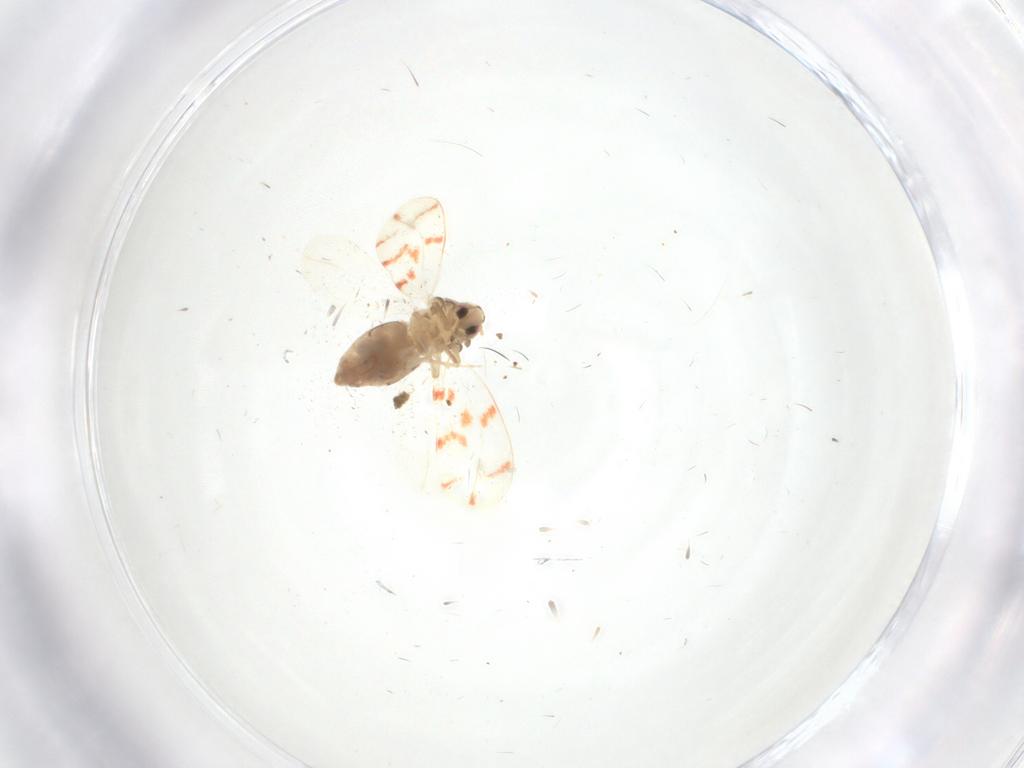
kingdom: Animalia
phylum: Arthropoda
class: Insecta
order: Hemiptera
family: Aleyrodidae
